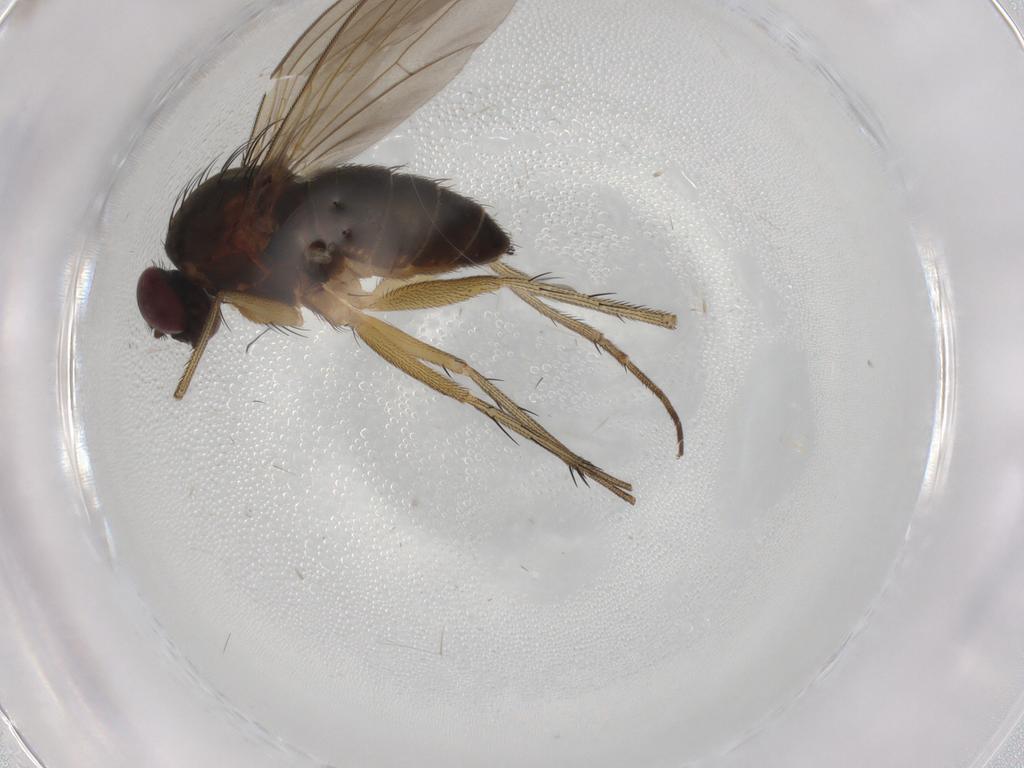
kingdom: Animalia
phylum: Arthropoda
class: Insecta
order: Diptera
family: Dolichopodidae
